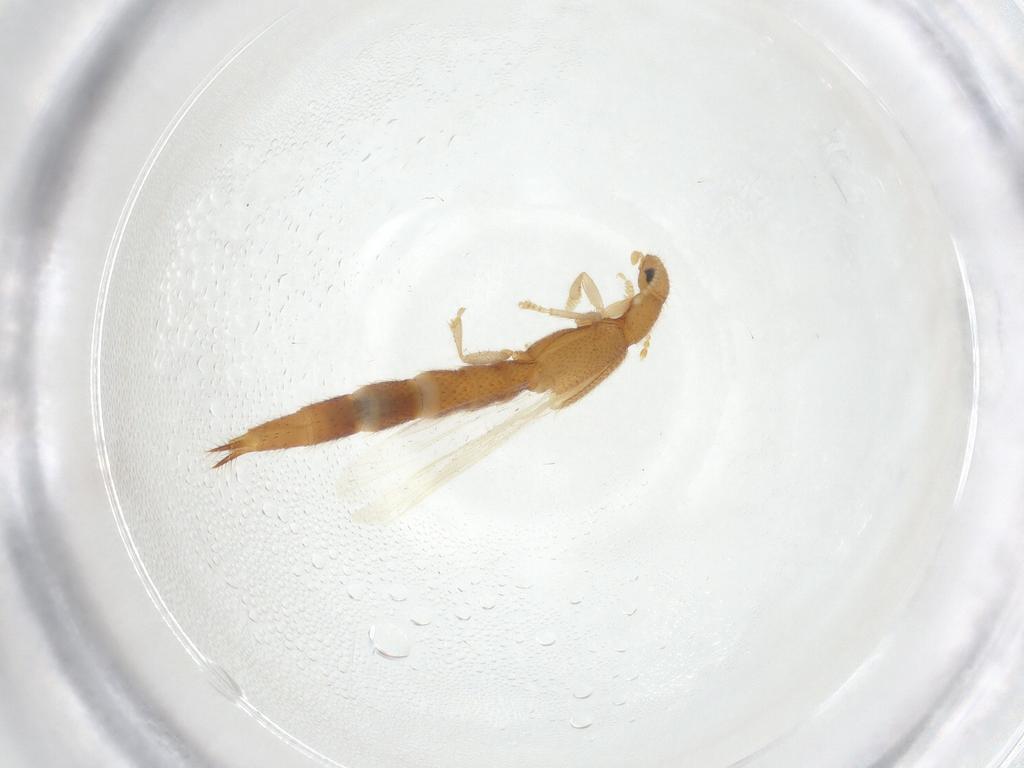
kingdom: Animalia
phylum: Arthropoda
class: Insecta
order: Coleoptera
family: Staphylinidae
